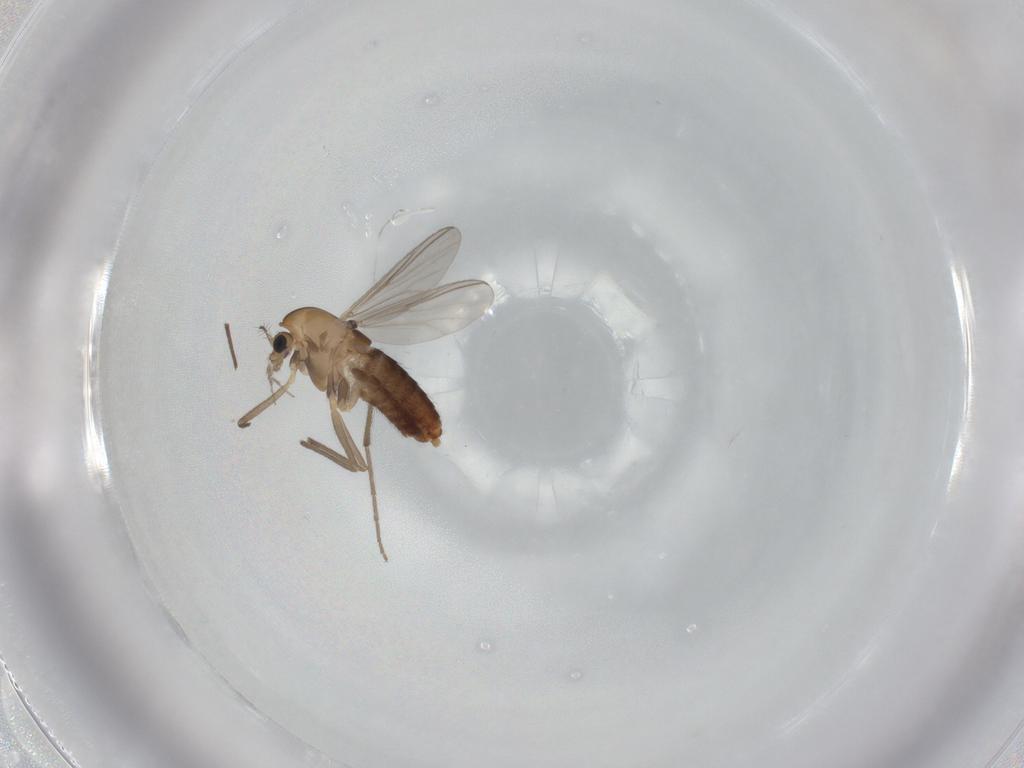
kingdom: Animalia
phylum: Arthropoda
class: Insecta
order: Diptera
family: Chironomidae
